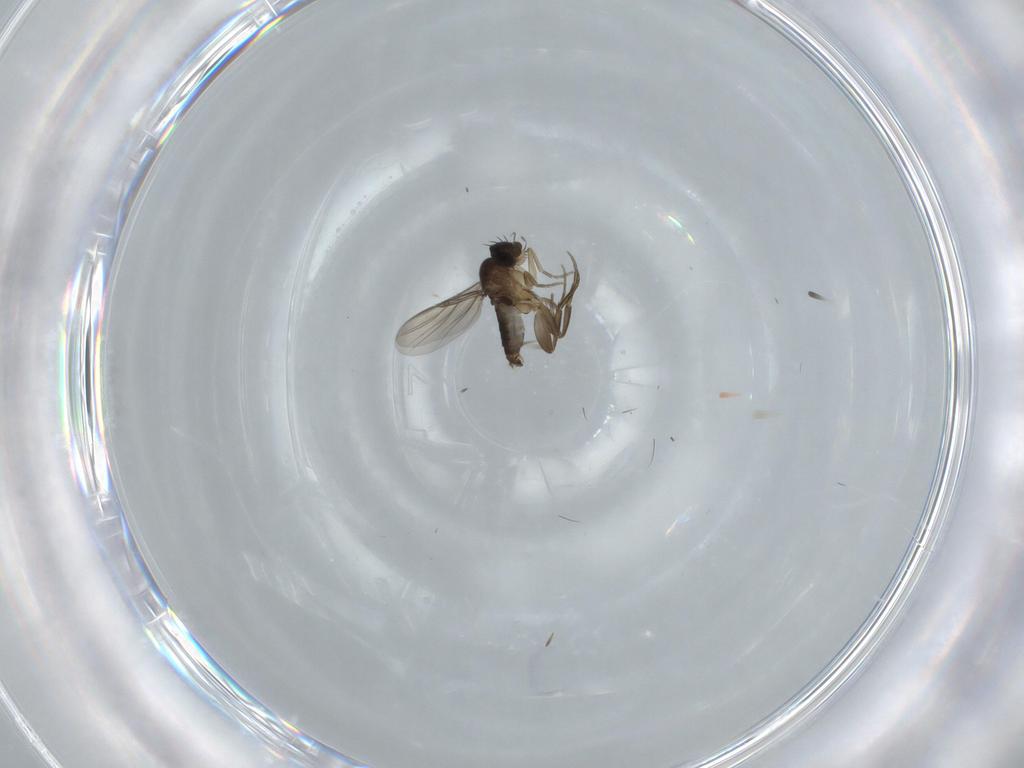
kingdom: Animalia
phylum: Arthropoda
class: Insecta
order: Diptera
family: Phoridae
